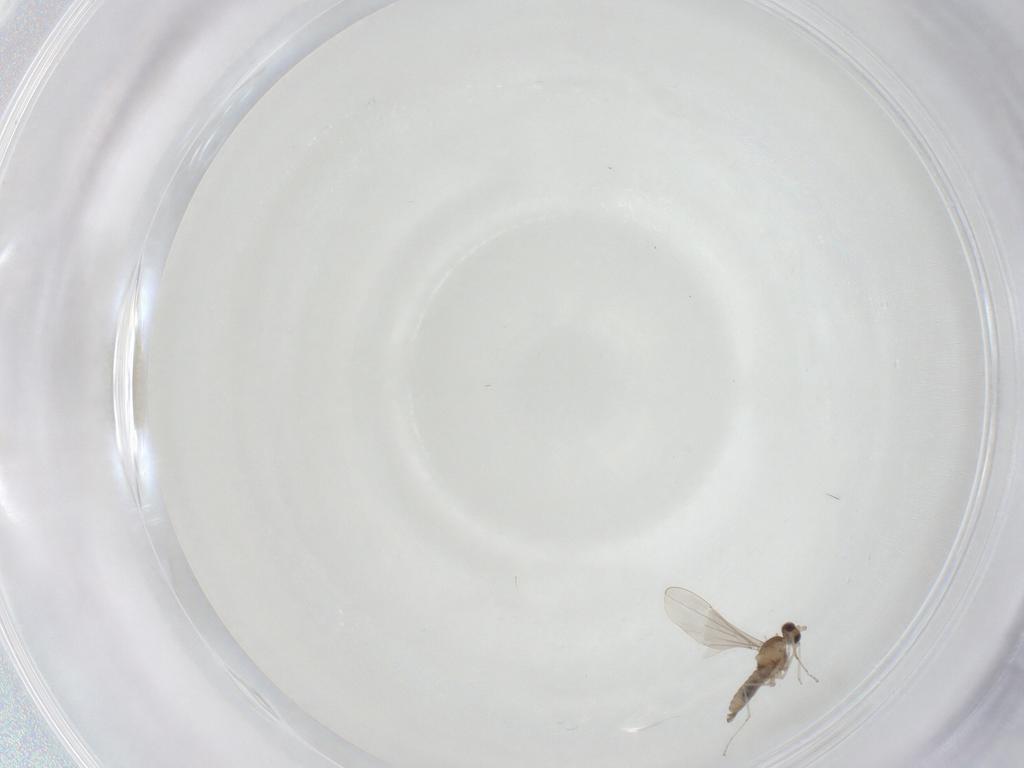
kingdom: Animalia
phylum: Arthropoda
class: Insecta
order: Diptera
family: Cecidomyiidae
